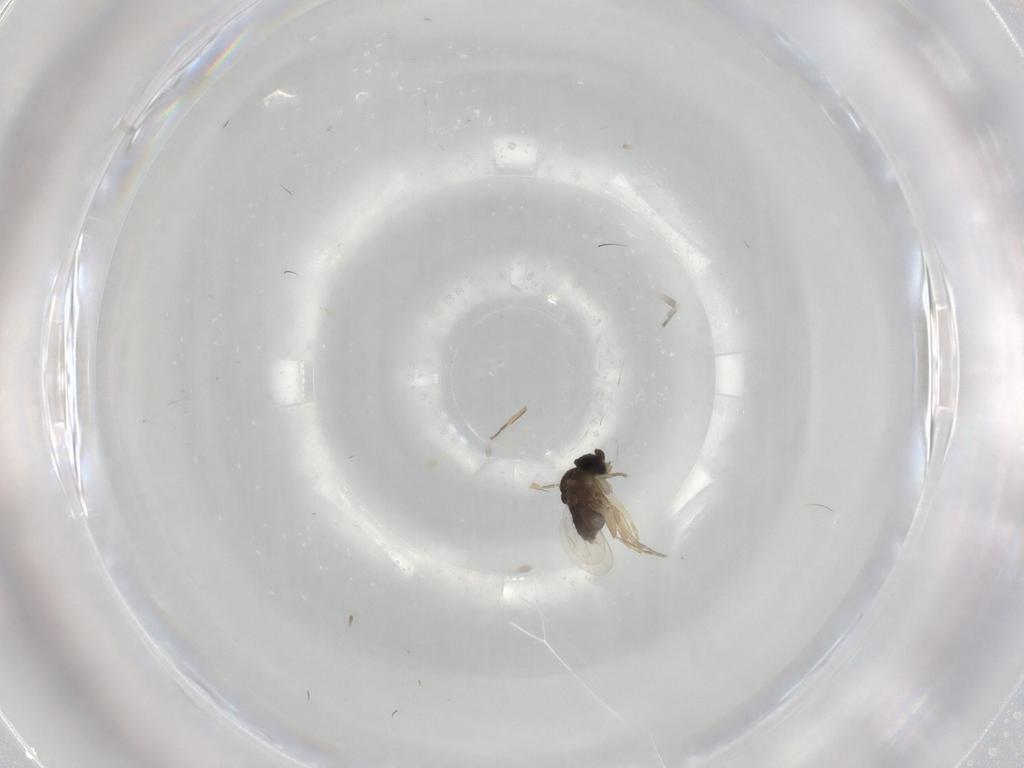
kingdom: Animalia
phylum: Arthropoda
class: Insecta
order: Diptera
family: Phoridae
